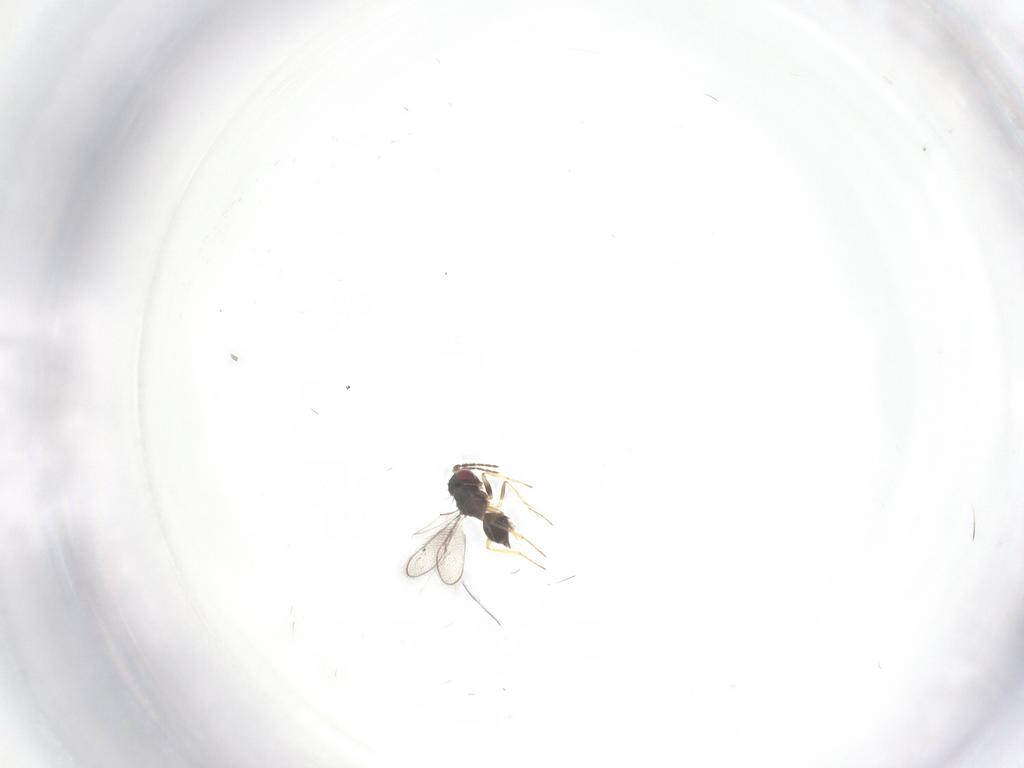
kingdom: Animalia
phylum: Arthropoda
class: Insecta
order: Hymenoptera
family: Eulophidae
